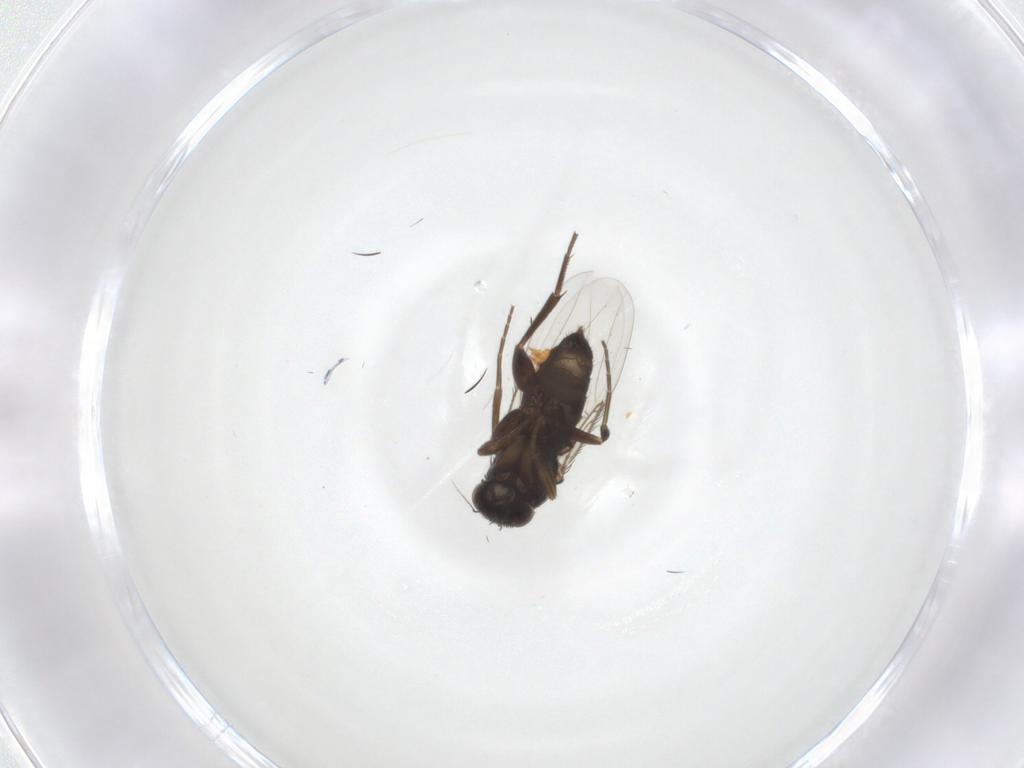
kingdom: Animalia
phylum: Arthropoda
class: Insecta
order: Diptera
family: Phoridae
